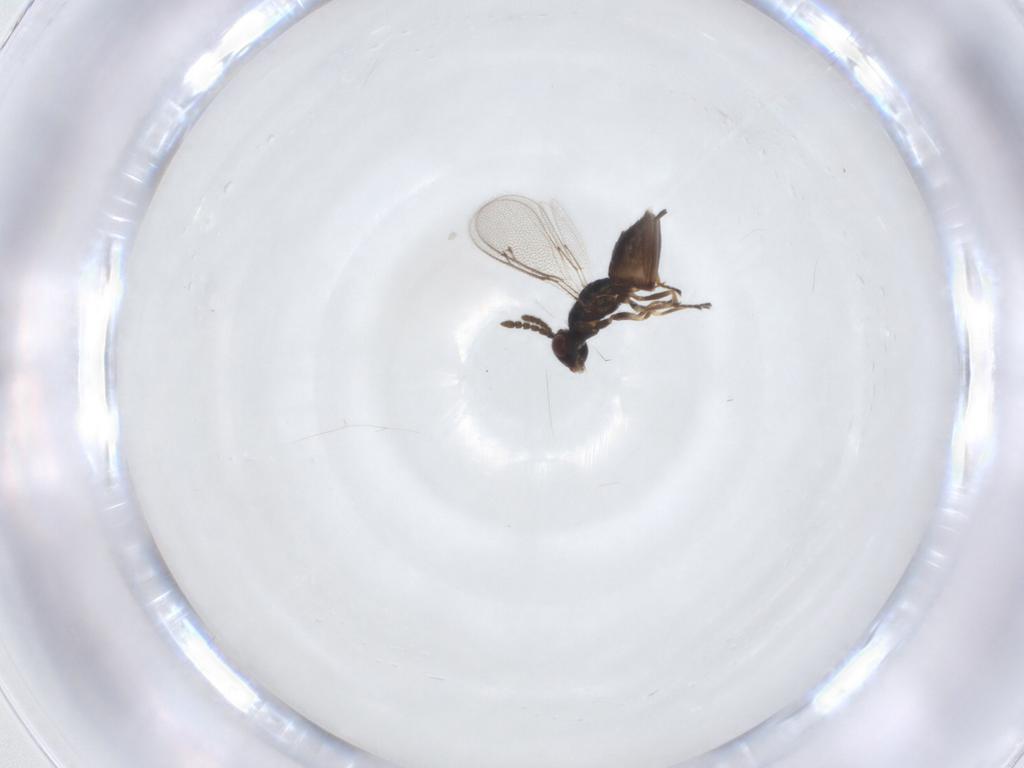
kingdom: Animalia
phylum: Arthropoda
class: Insecta
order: Hymenoptera
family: Eulophidae
